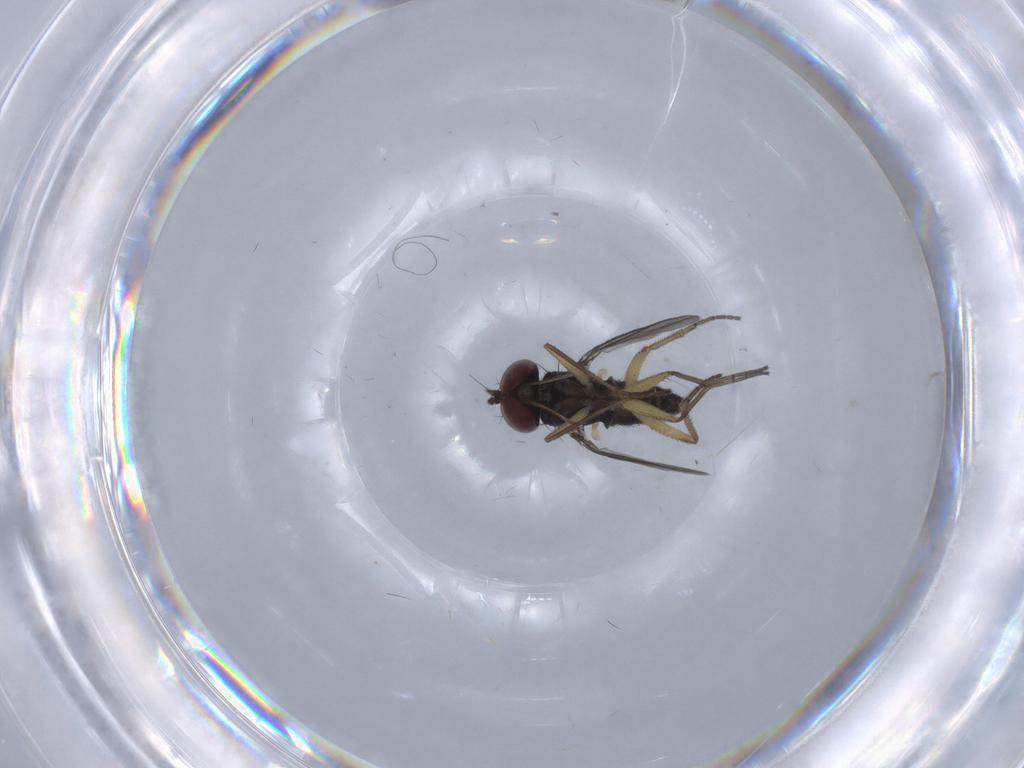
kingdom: Animalia
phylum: Arthropoda
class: Insecta
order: Diptera
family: Dolichopodidae
